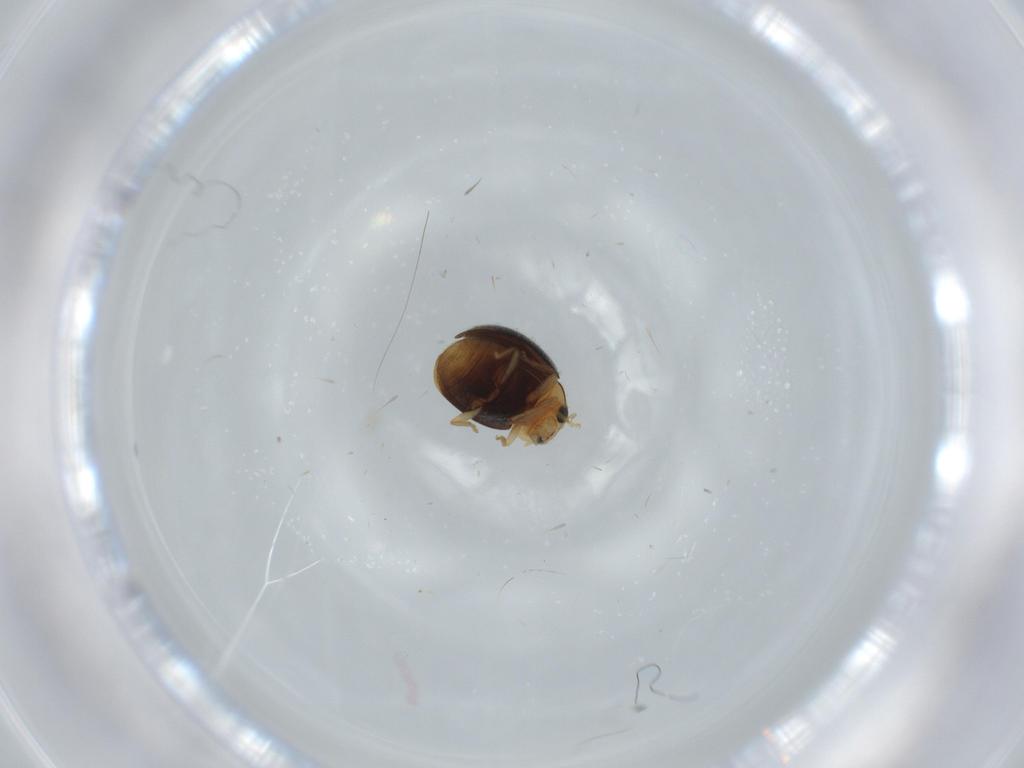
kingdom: Animalia
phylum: Arthropoda
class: Insecta
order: Coleoptera
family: Coccinellidae
